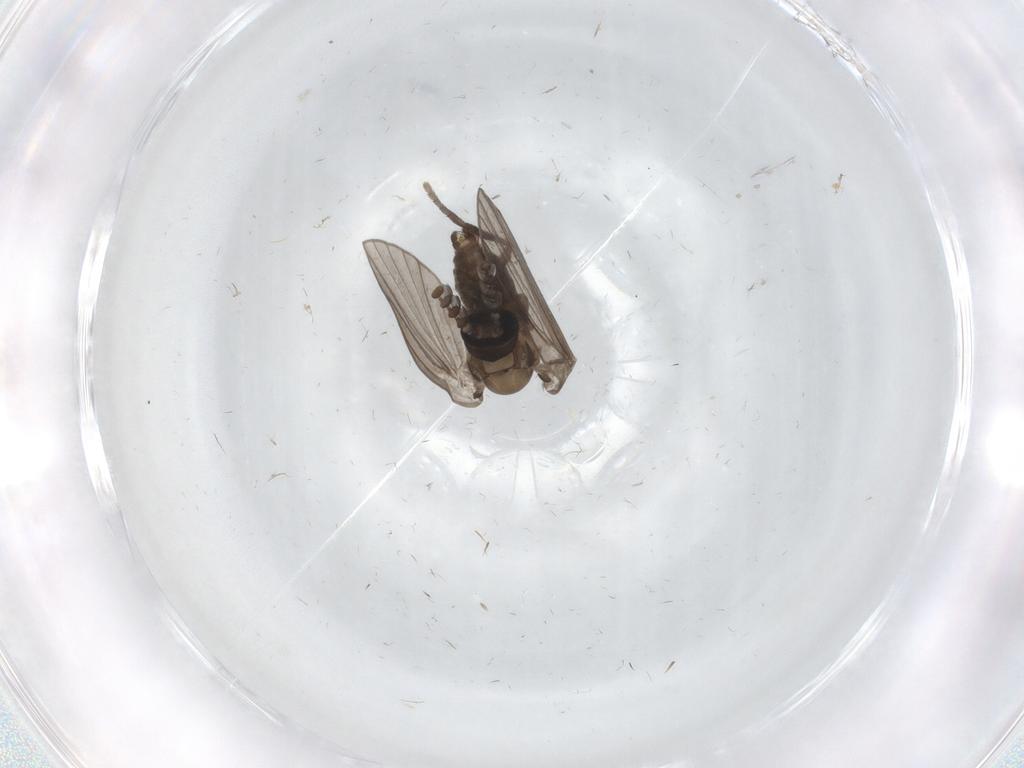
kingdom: Animalia
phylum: Arthropoda
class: Insecta
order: Diptera
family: Psychodidae
